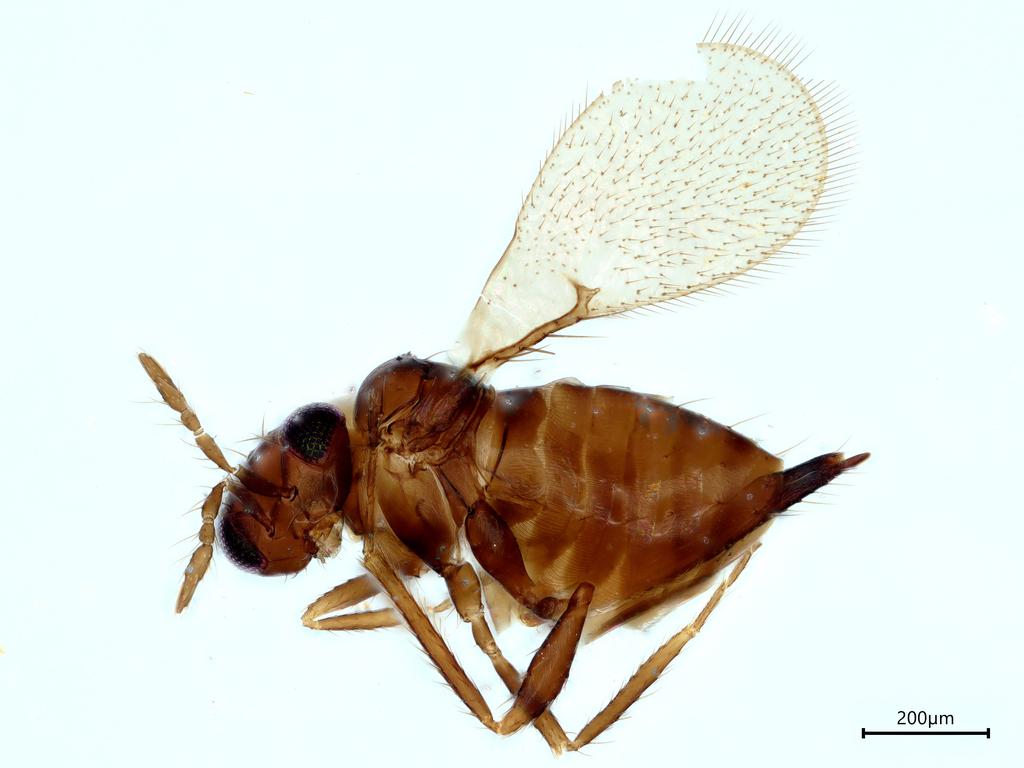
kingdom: Animalia
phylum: Arthropoda
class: Insecta
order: Hymenoptera
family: Trichogrammatidae
